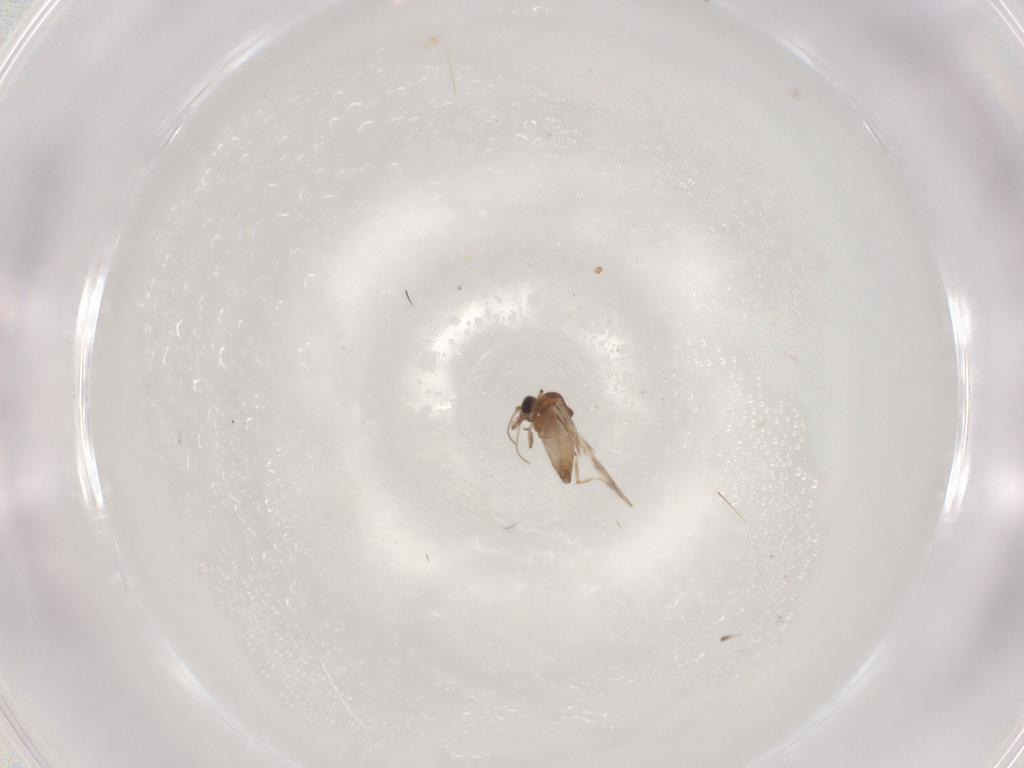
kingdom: Animalia
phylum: Arthropoda
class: Insecta
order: Diptera
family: Ceratopogonidae
